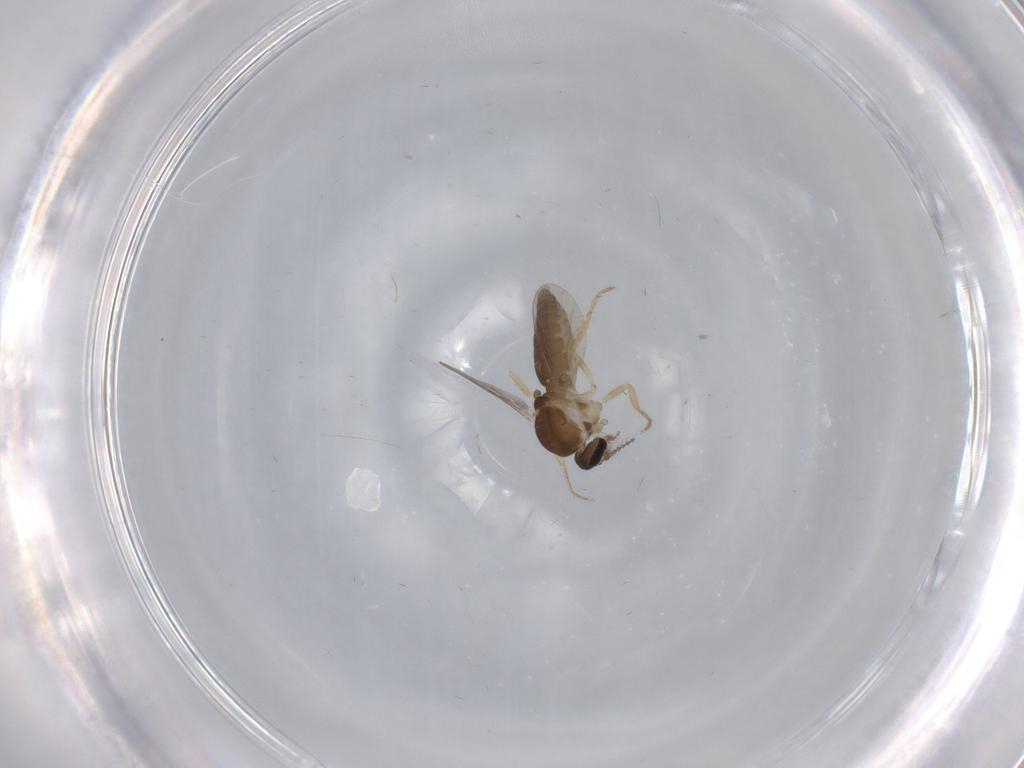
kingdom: Animalia
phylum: Arthropoda
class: Insecta
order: Diptera
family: Ceratopogonidae
